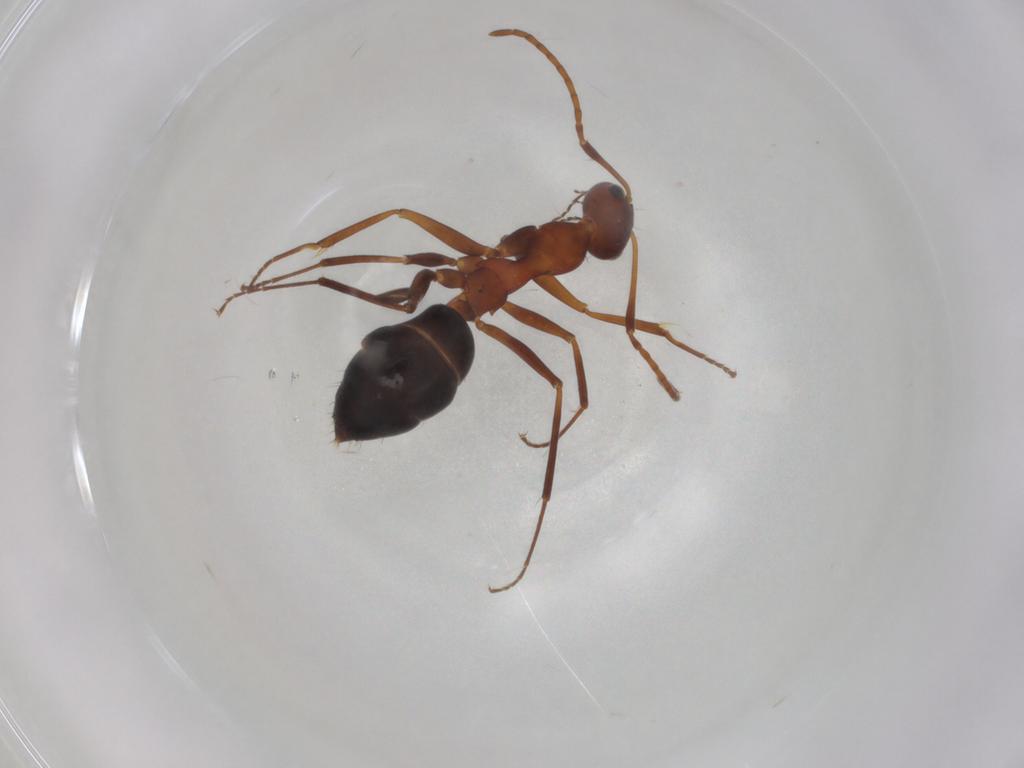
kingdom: Animalia
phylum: Arthropoda
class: Insecta
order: Hymenoptera
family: Formicidae
